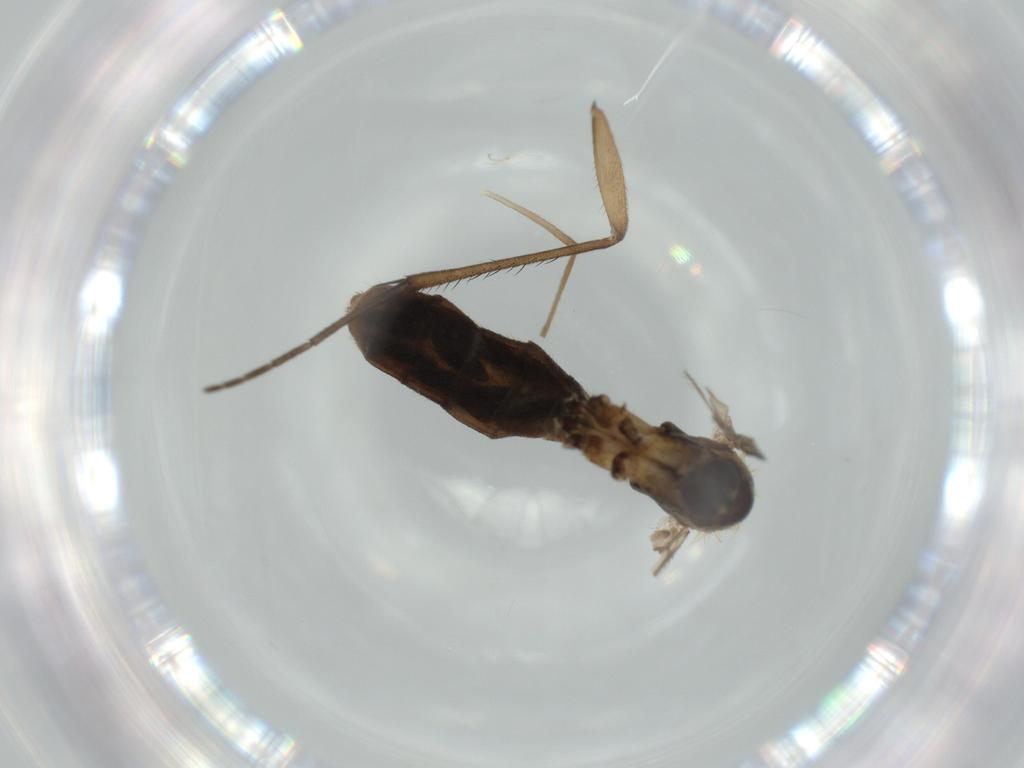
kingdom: Animalia
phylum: Arthropoda
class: Insecta
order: Diptera
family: Mycetophilidae
